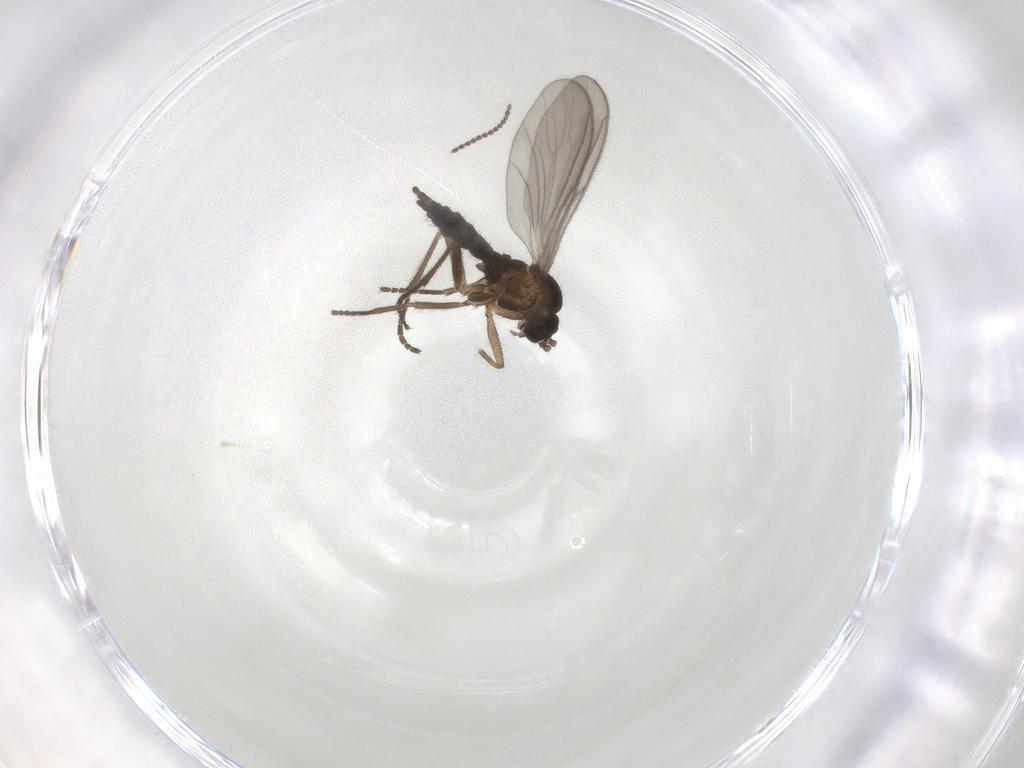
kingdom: Animalia
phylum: Arthropoda
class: Insecta
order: Diptera
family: Sciaridae
